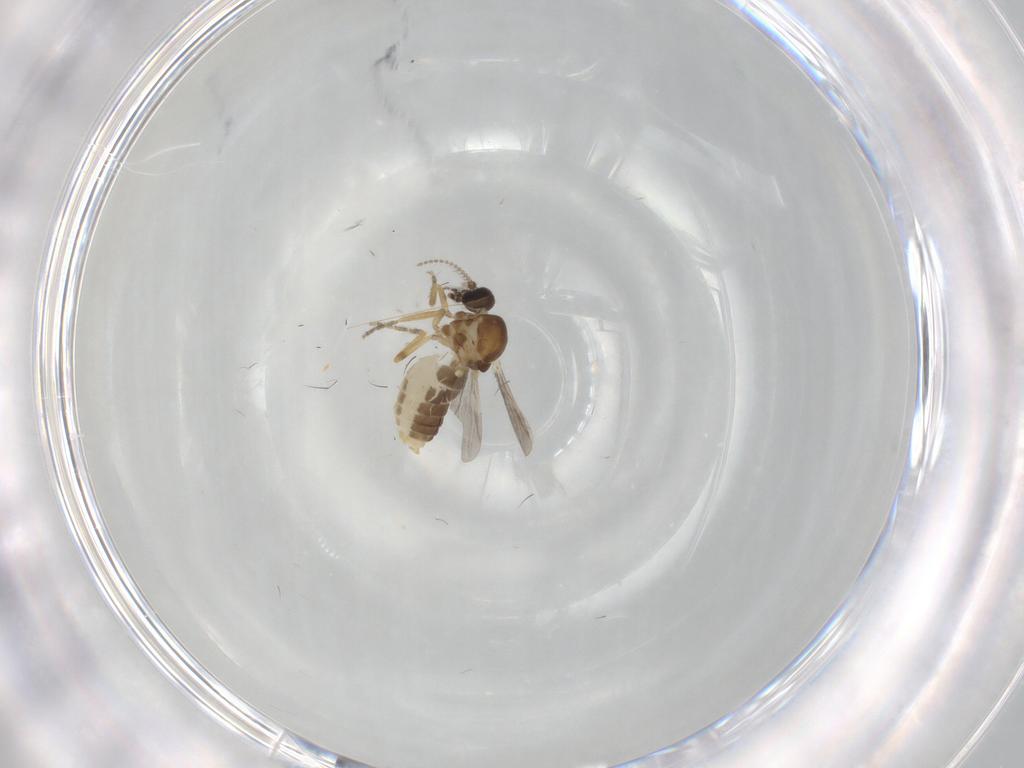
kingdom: Animalia
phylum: Arthropoda
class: Insecta
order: Diptera
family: Ceratopogonidae
